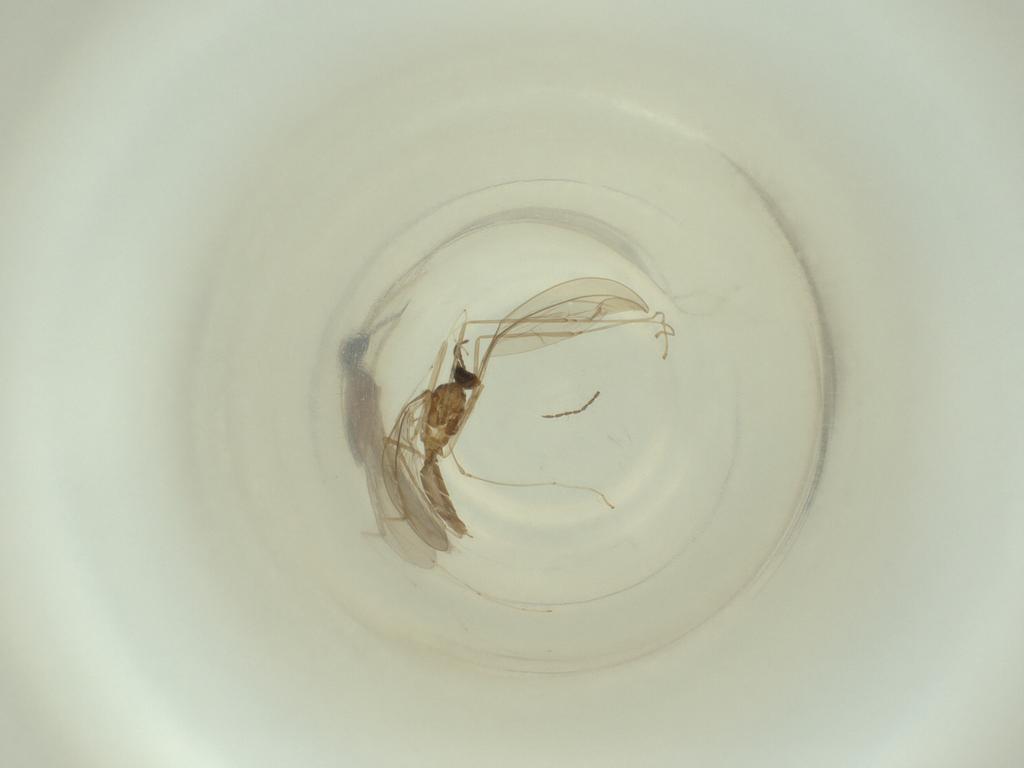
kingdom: Animalia
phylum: Arthropoda
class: Insecta
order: Diptera
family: Cecidomyiidae
